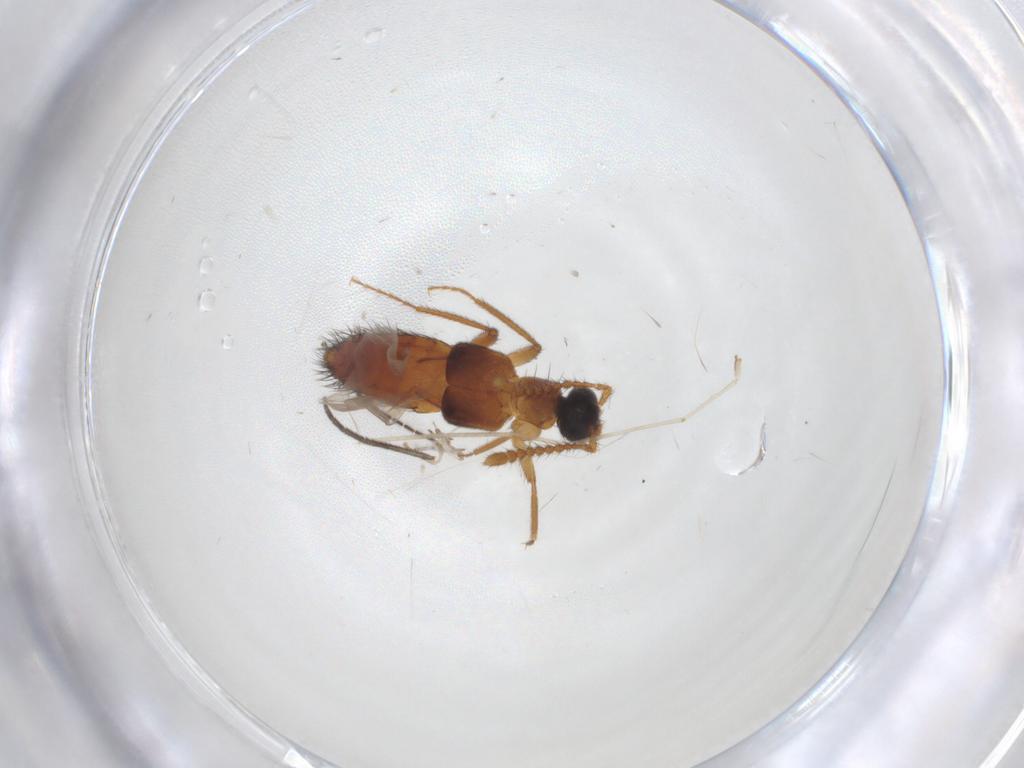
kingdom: Animalia
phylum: Arthropoda
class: Insecta
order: Coleoptera
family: Staphylinidae
